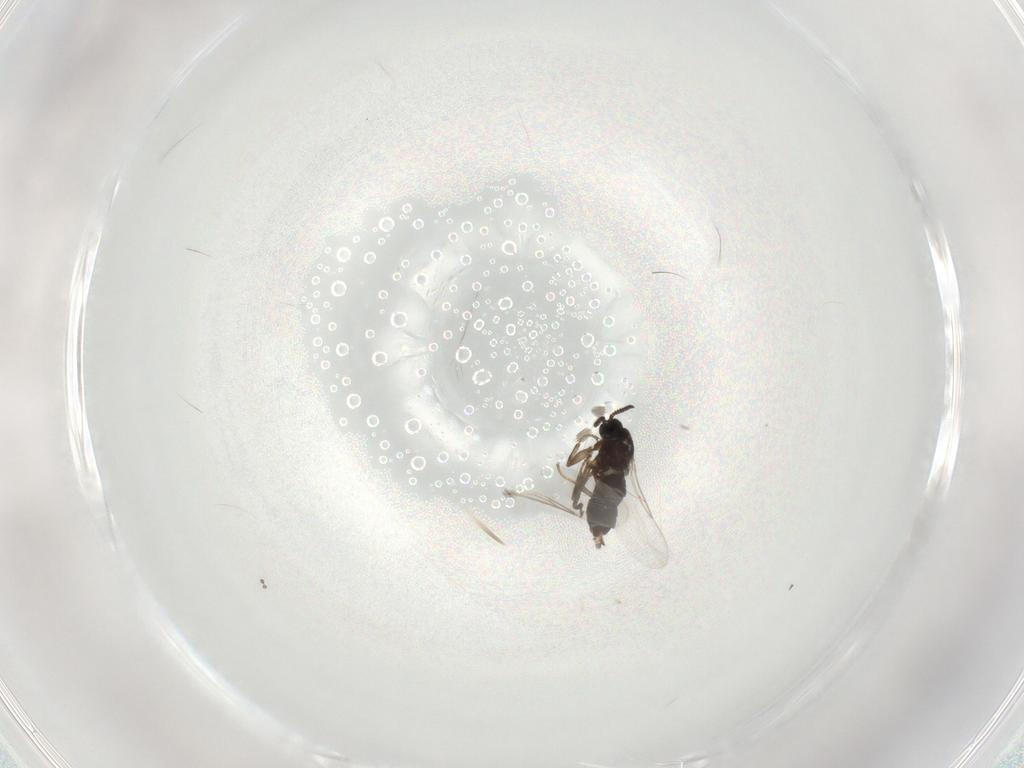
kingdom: Animalia
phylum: Arthropoda
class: Insecta
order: Diptera
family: Scatopsidae
